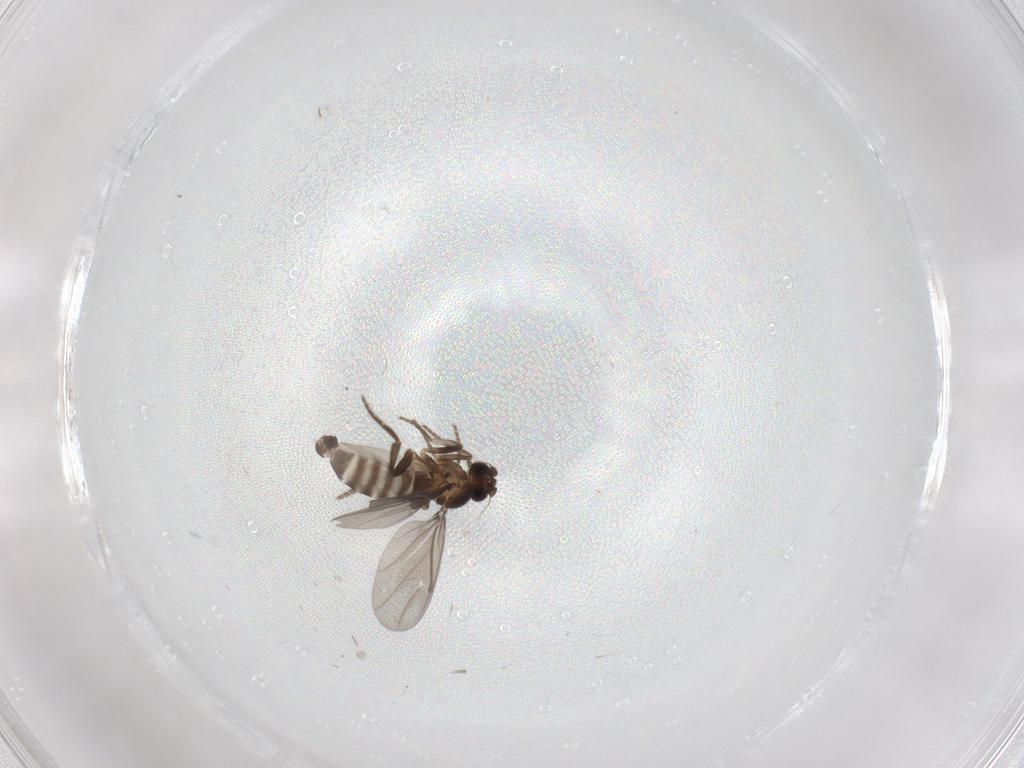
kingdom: Animalia
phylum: Arthropoda
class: Insecta
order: Diptera
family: Phoridae
